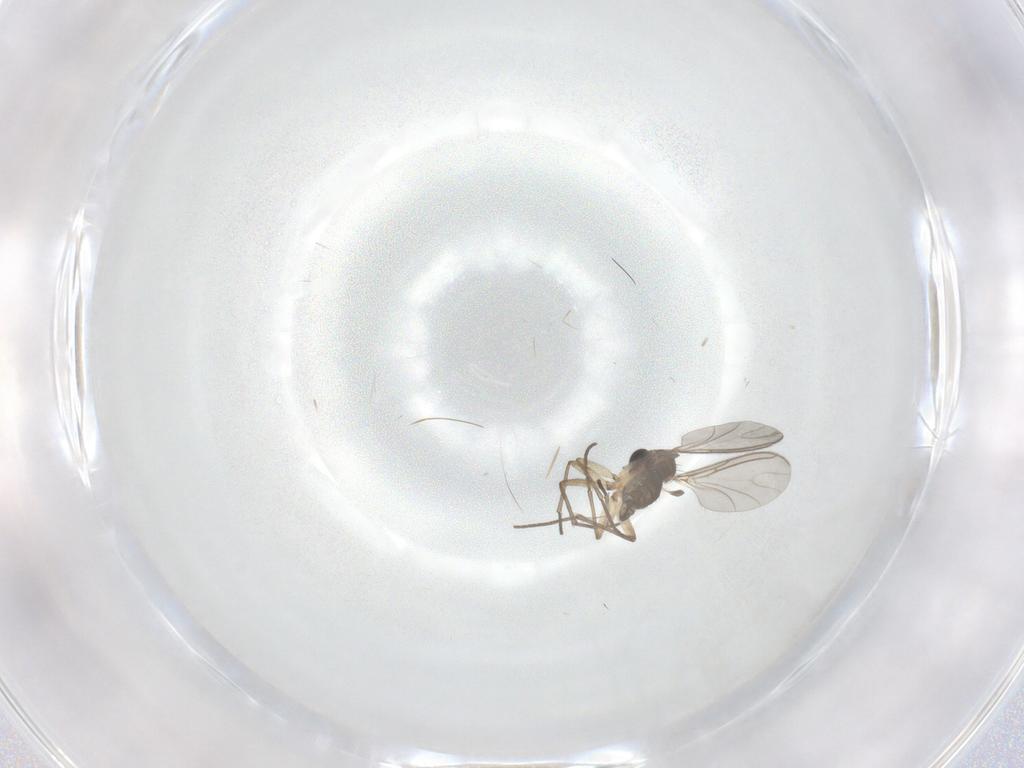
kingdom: Animalia
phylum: Arthropoda
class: Insecta
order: Diptera
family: Sciaridae
